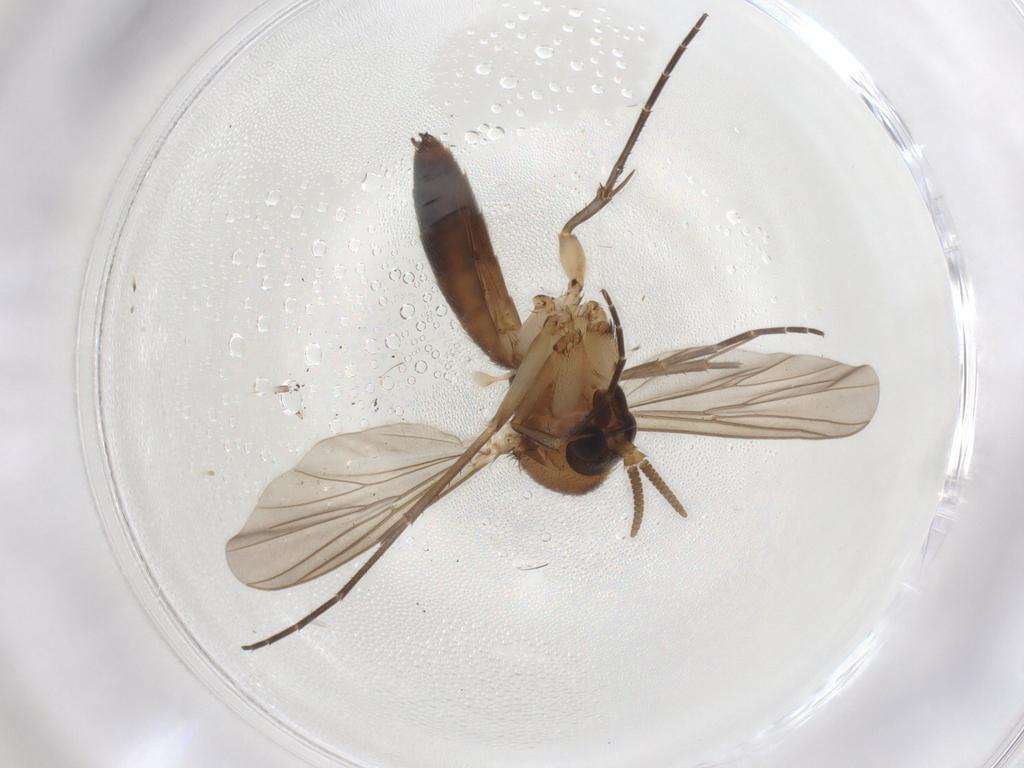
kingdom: Animalia
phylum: Arthropoda
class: Insecta
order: Diptera
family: Mycetophilidae
